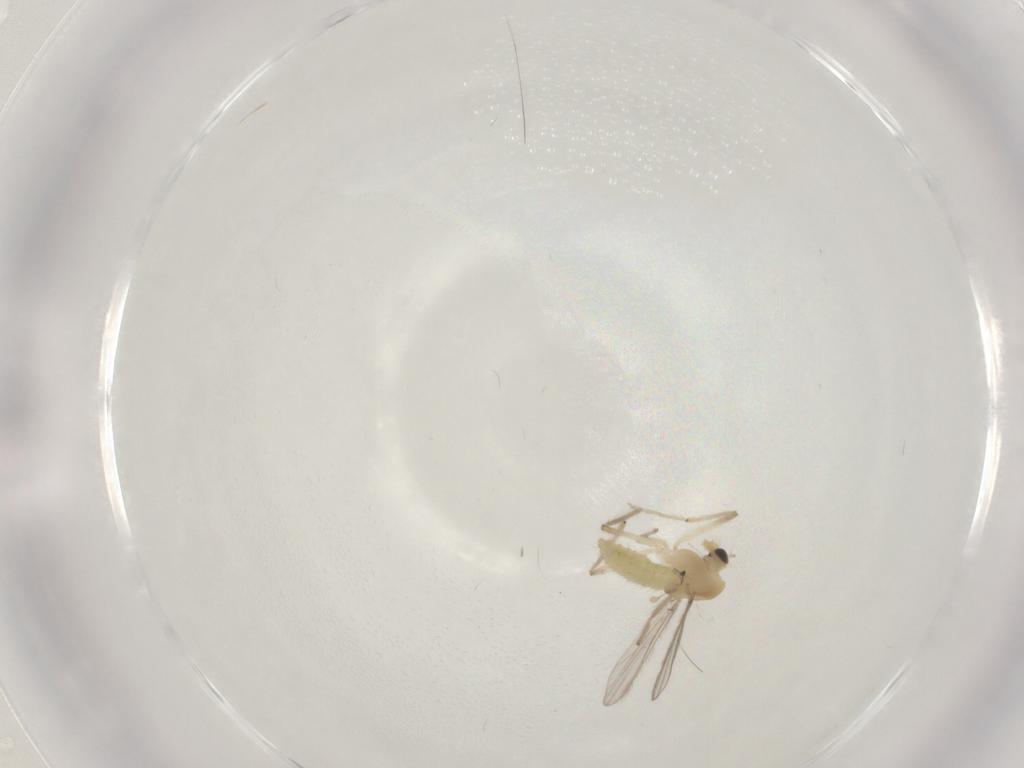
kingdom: Animalia
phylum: Arthropoda
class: Insecta
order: Diptera
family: Chironomidae
